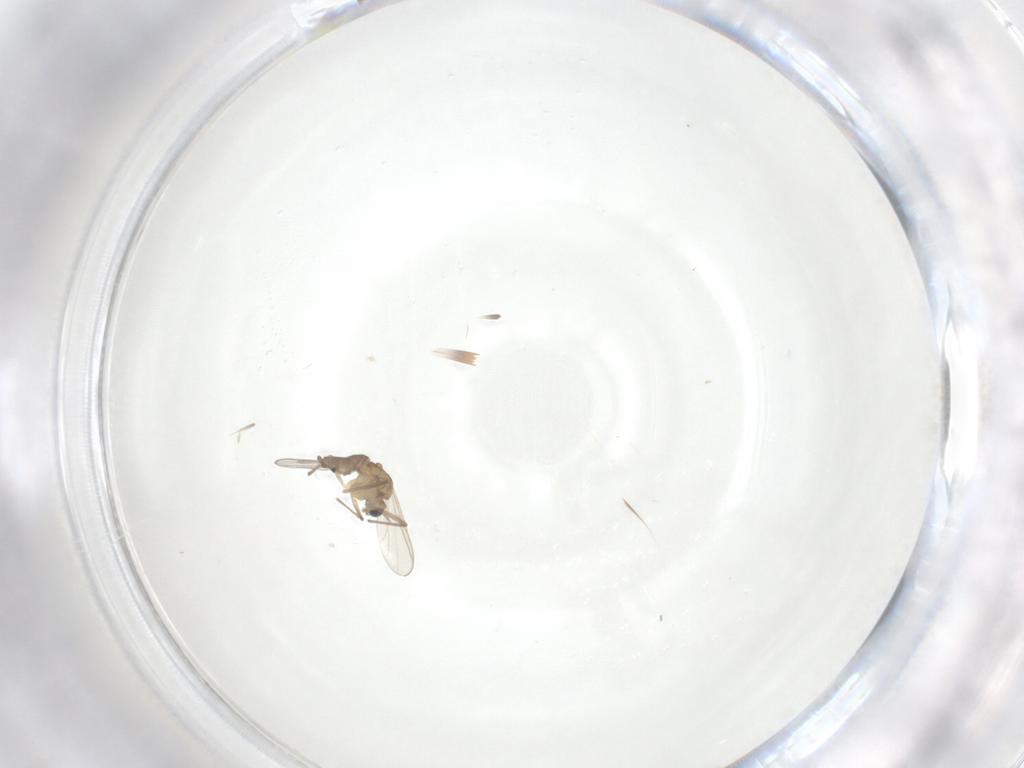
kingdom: Animalia
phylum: Arthropoda
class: Insecta
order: Diptera
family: Chironomidae
